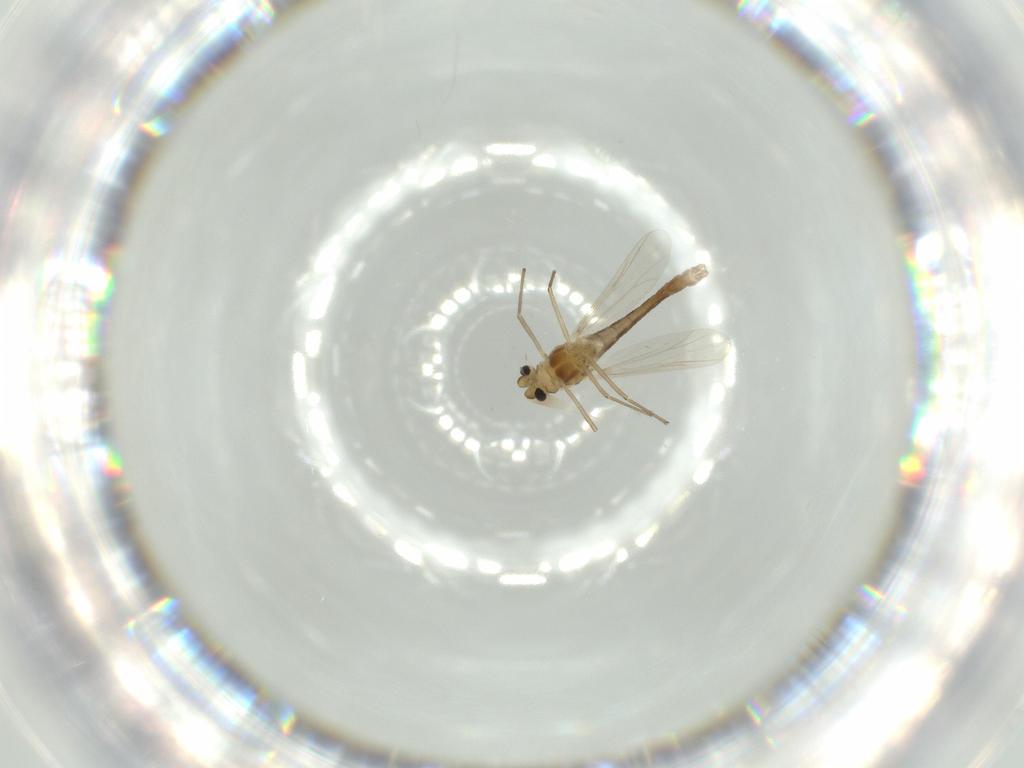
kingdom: Animalia
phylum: Arthropoda
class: Insecta
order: Diptera
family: Chironomidae
